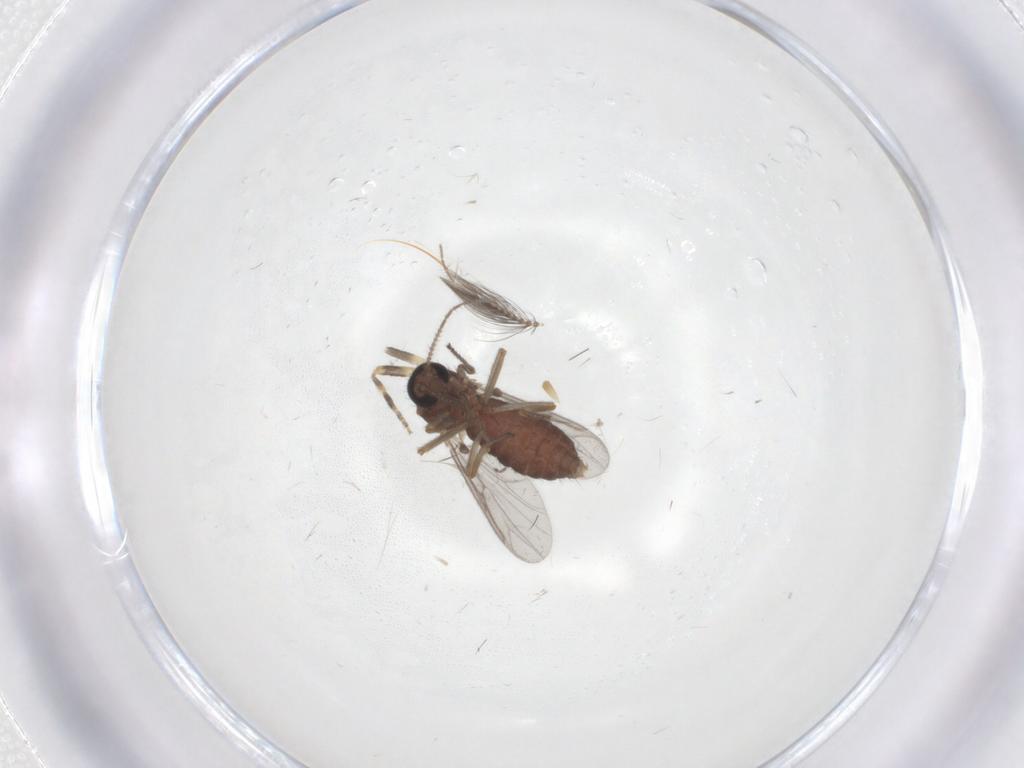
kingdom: Animalia
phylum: Arthropoda
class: Insecta
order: Diptera
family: Ceratopogonidae
